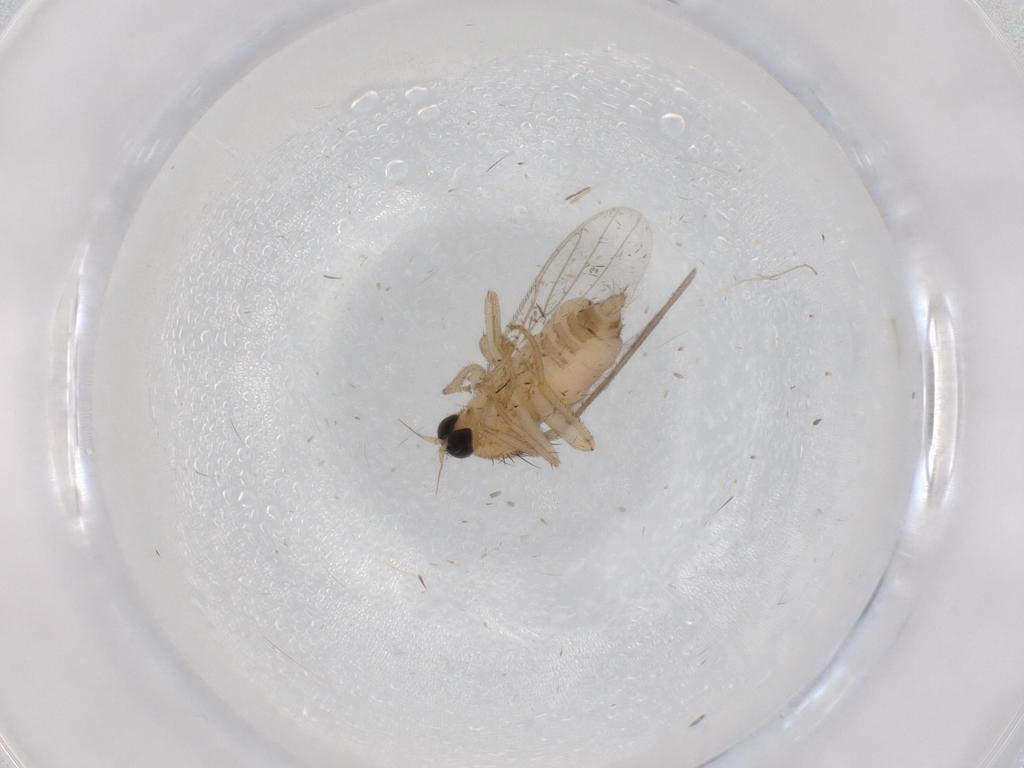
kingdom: Animalia
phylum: Arthropoda
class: Insecta
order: Diptera
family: Hybotidae
